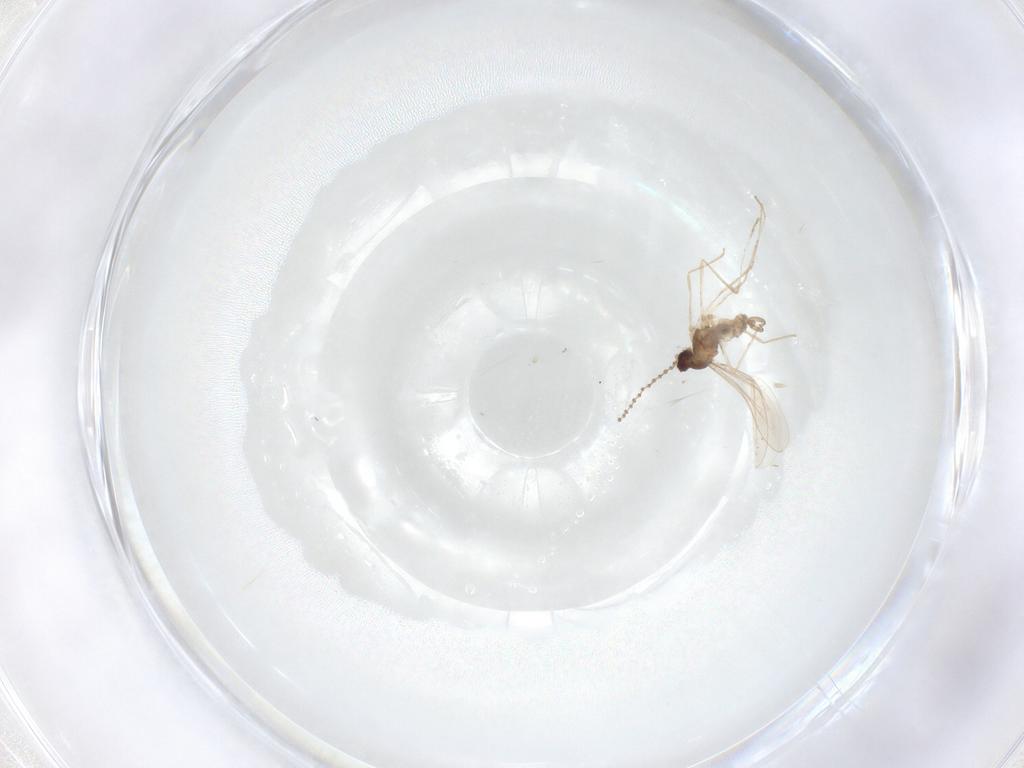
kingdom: Animalia
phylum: Arthropoda
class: Insecta
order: Diptera
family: Cecidomyiidae
